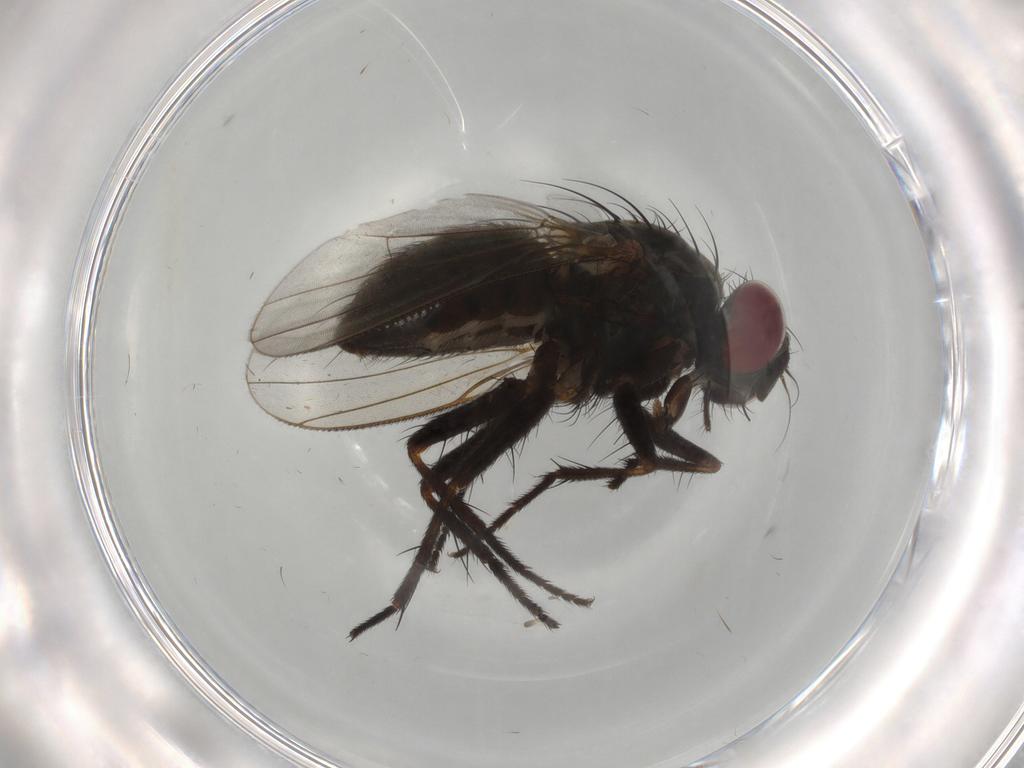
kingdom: Animalia
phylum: Arthropoda
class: Insecta
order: Diptera
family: Muscidae
